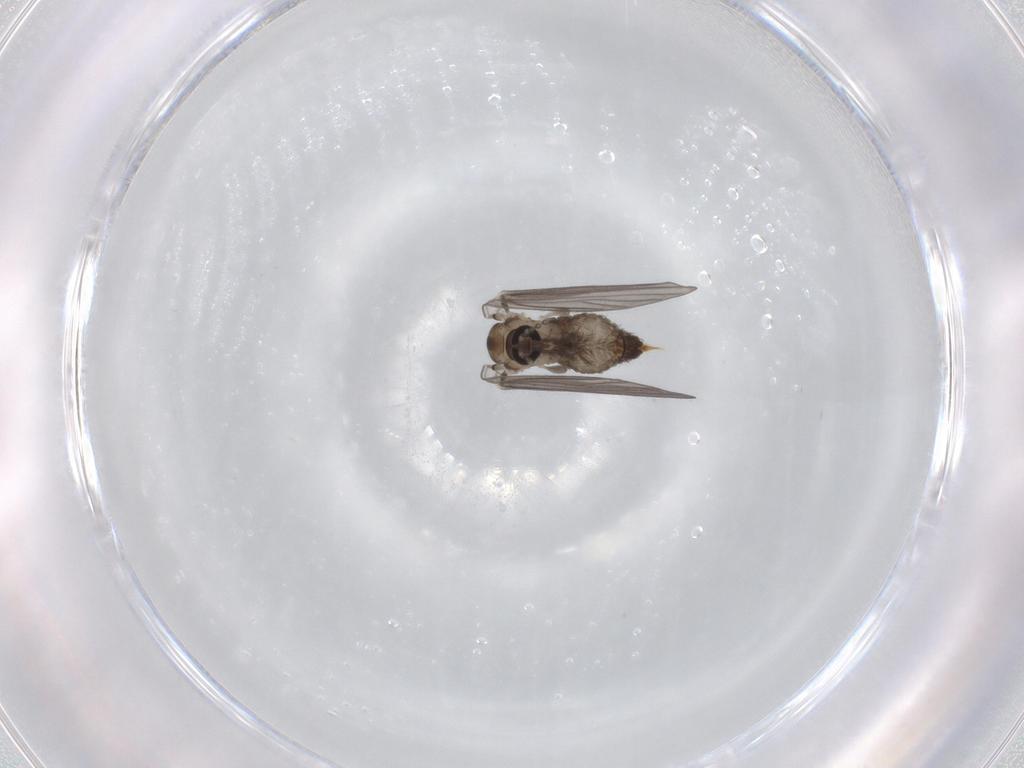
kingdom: Animalia
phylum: Arthropoda
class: Insecta
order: Diptera
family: Psychodidae
